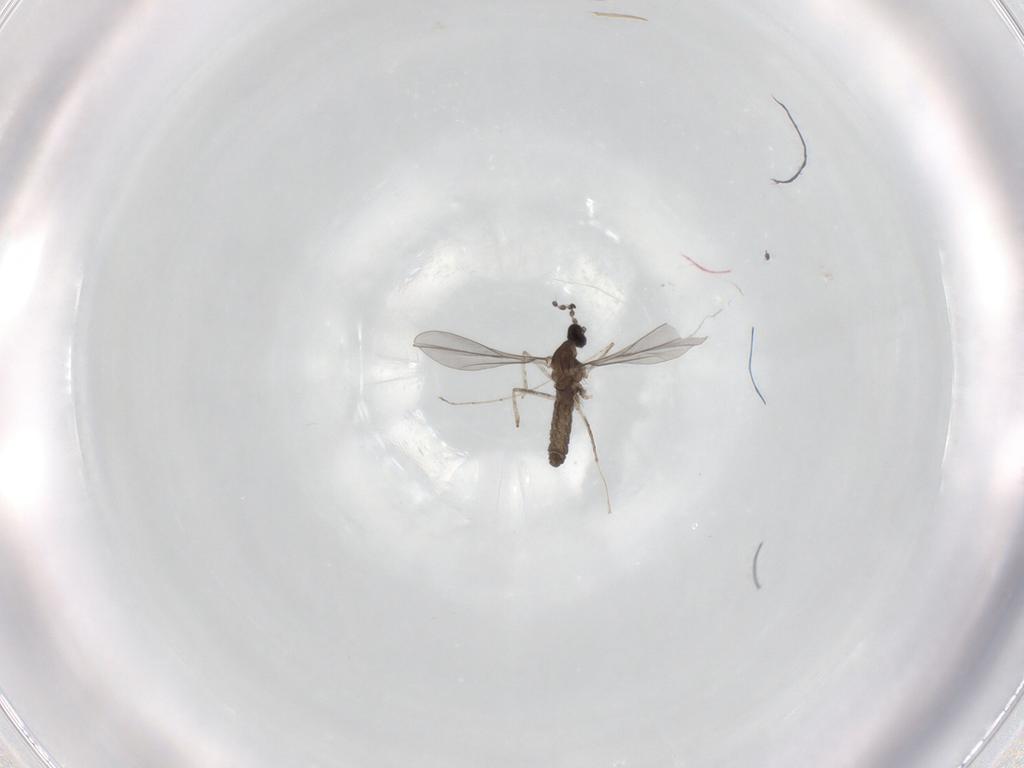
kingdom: Animalia
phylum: Arthropoda
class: Insecta
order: Diptera
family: Cecidomyiidae
